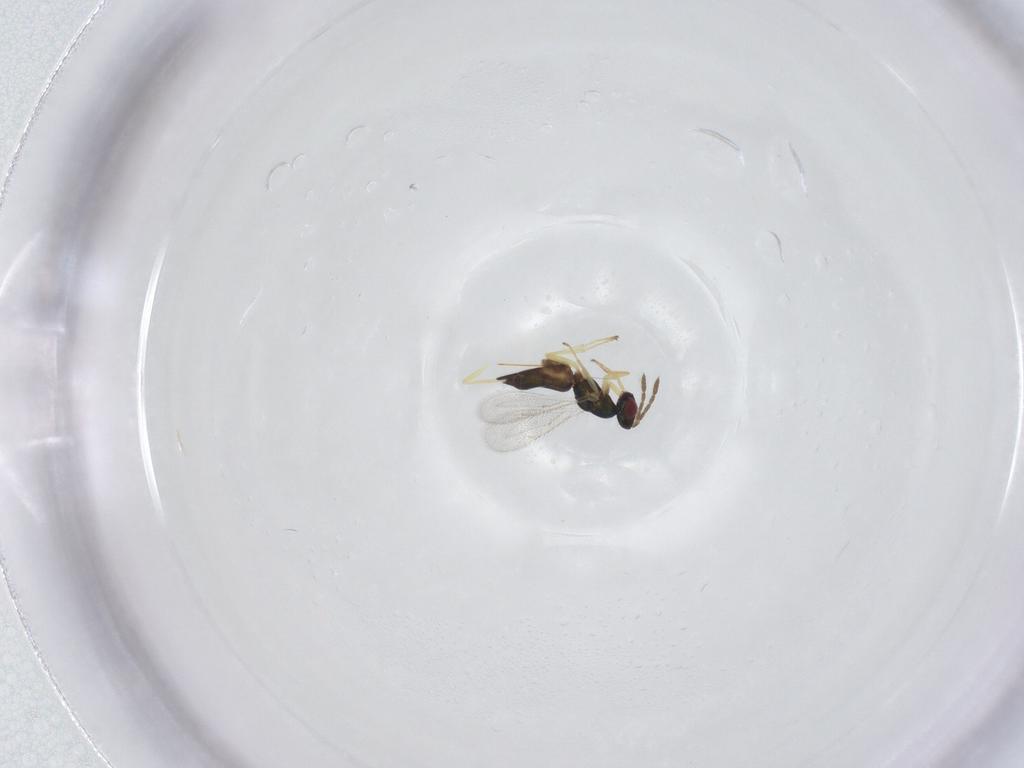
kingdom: Animalia
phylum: Arthropoda
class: Insecta
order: Hymenoptera
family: Eulophidae
